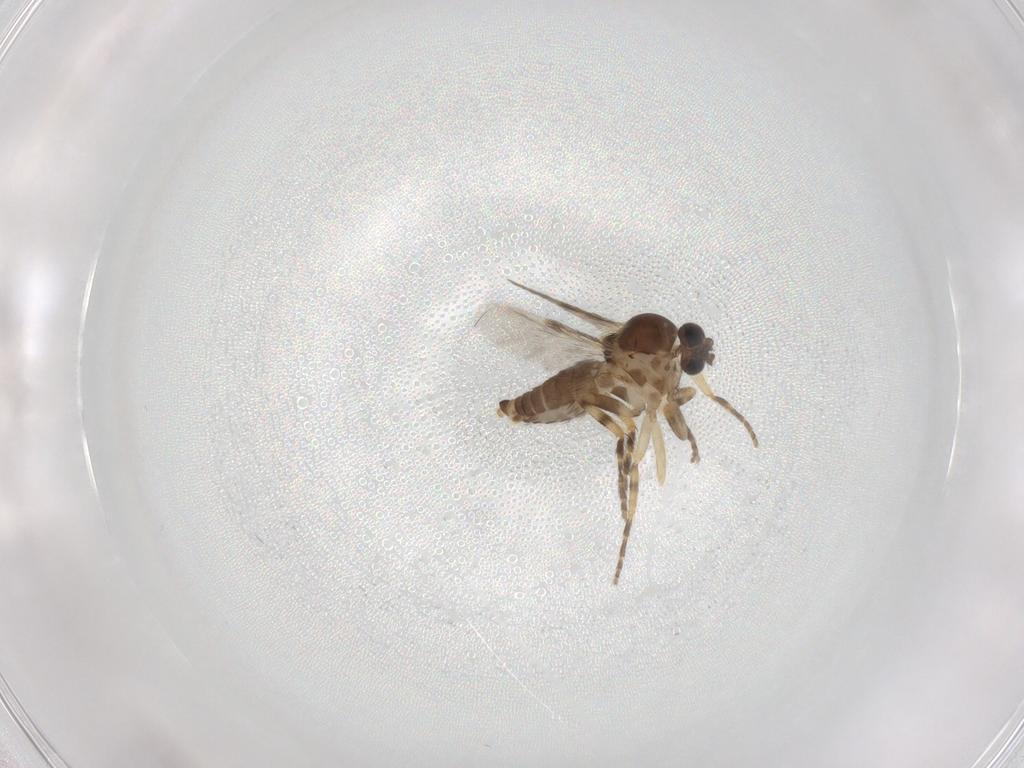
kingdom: Animalia
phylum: Arthropoda
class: Insecta
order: Diptera
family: Ceratopogonidae
